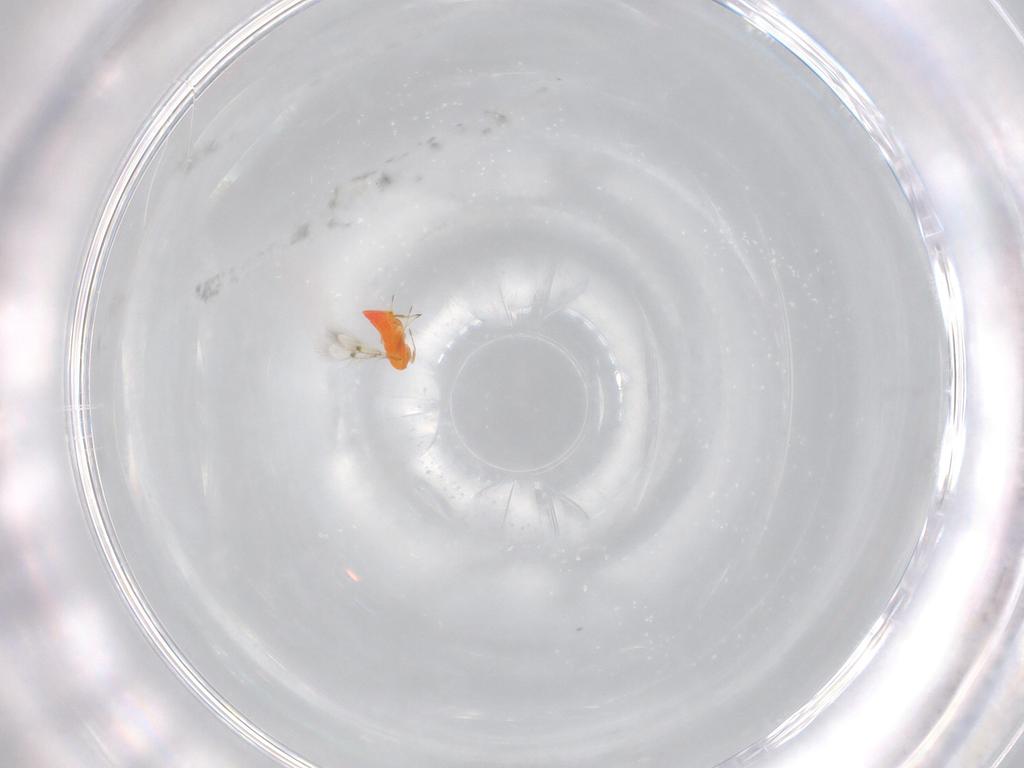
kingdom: Animalia
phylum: Arthropoda
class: Insecta
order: Hymenoptera
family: Trichogrammatidae
